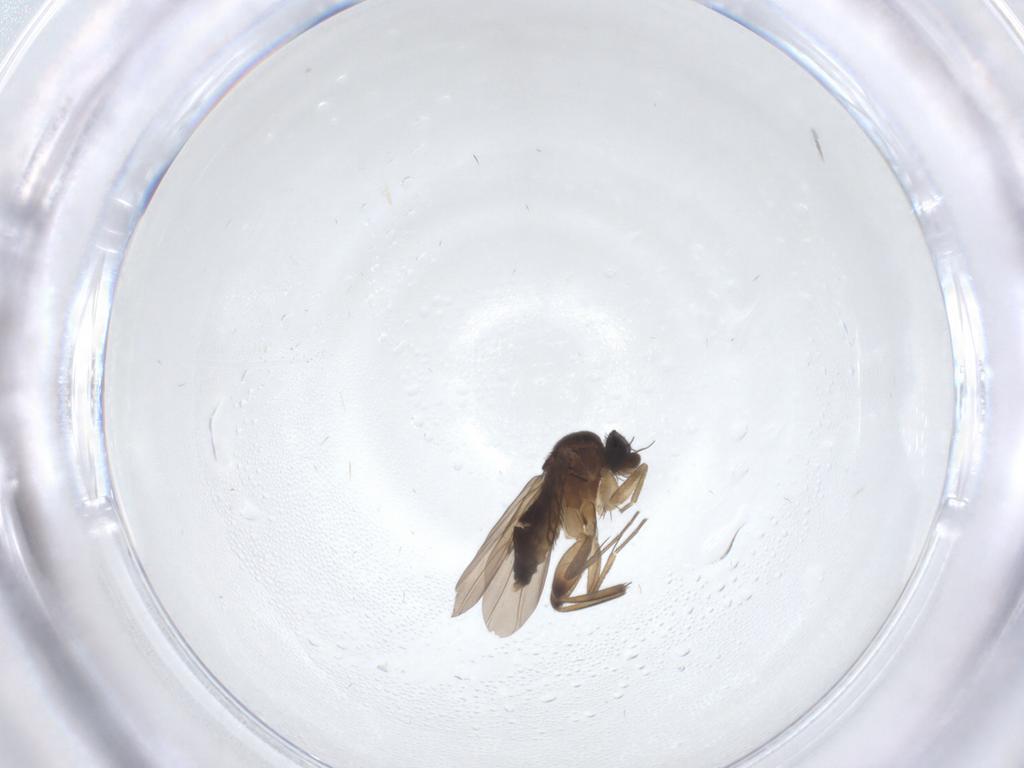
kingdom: Animalia
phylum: Arthropoda
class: Insecta
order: Diptera
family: Phoridae
